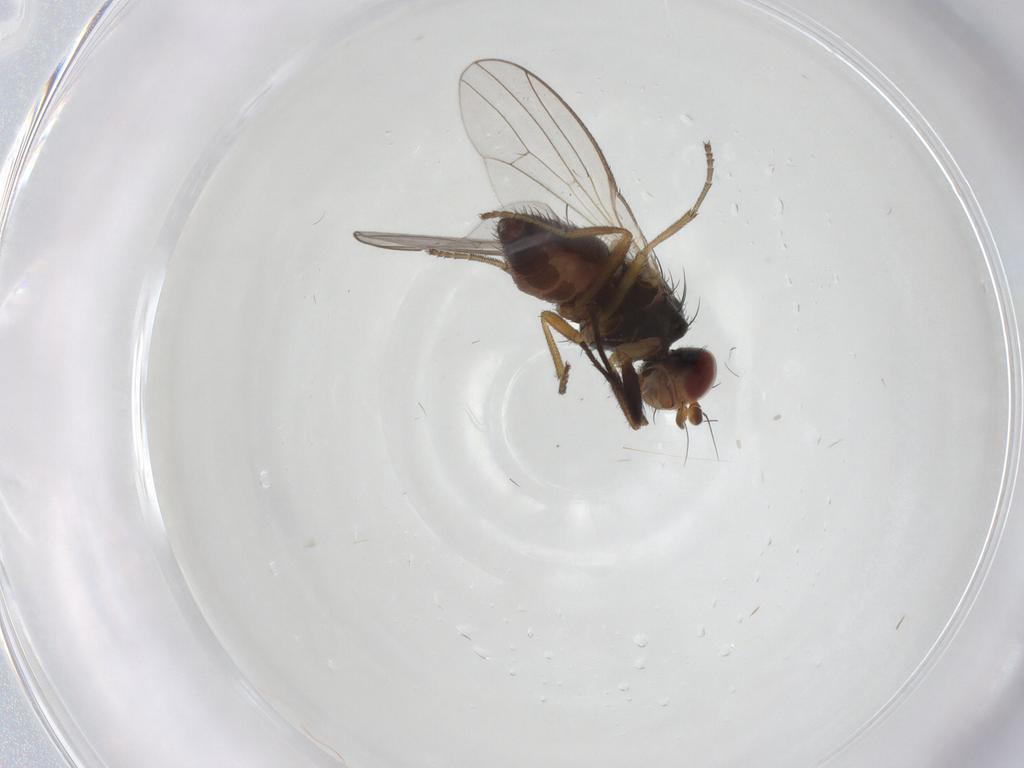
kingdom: Animalia
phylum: Arthropoda
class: Insecta
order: Diptera
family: Heleomyzidae
